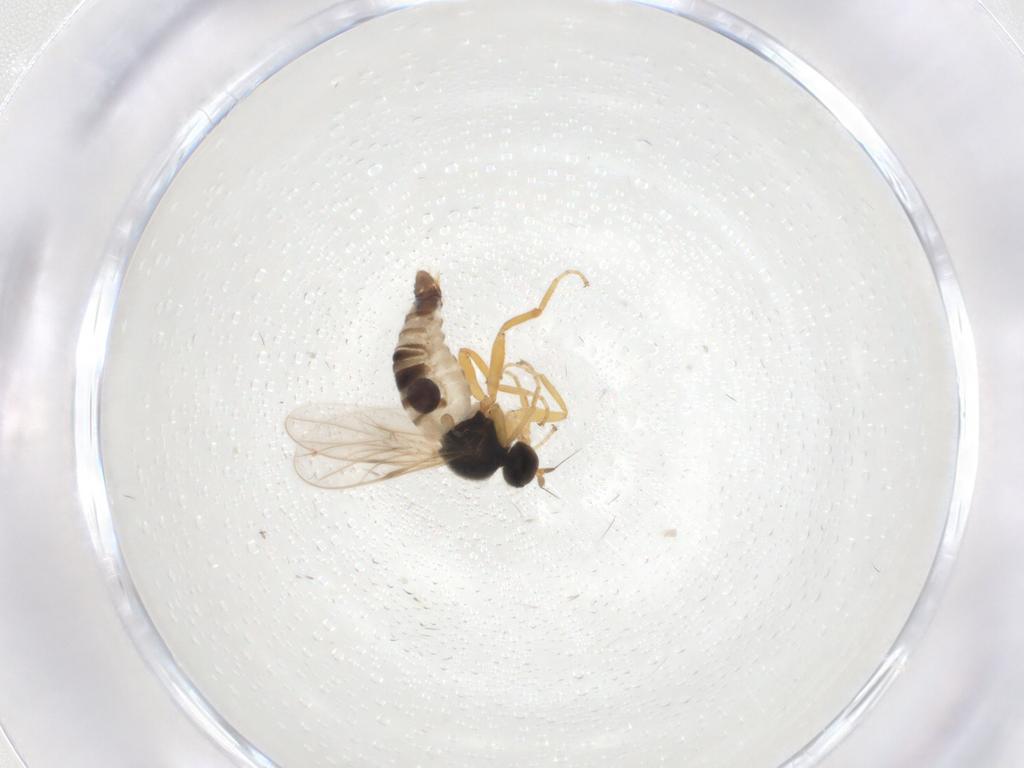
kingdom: Animalia
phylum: Arthropoda
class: Insecta
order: Diptera
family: Hybotidae
